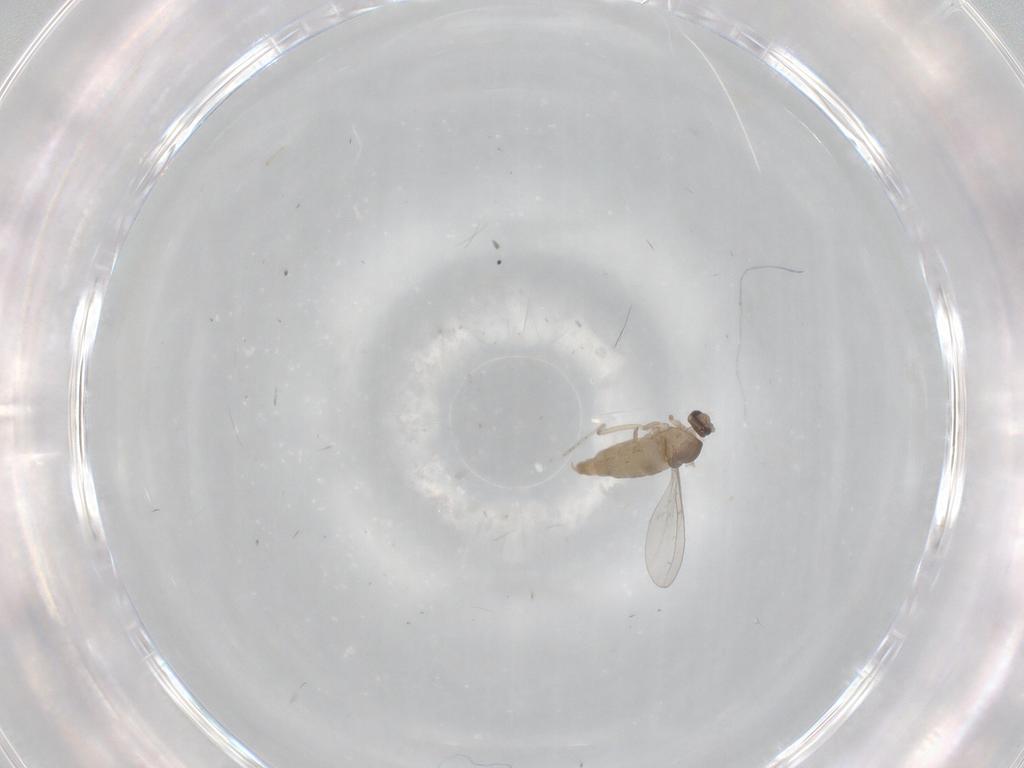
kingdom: Animalia
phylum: Arthropoda
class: Insecta
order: Diptera
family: Cecidomyiidae
